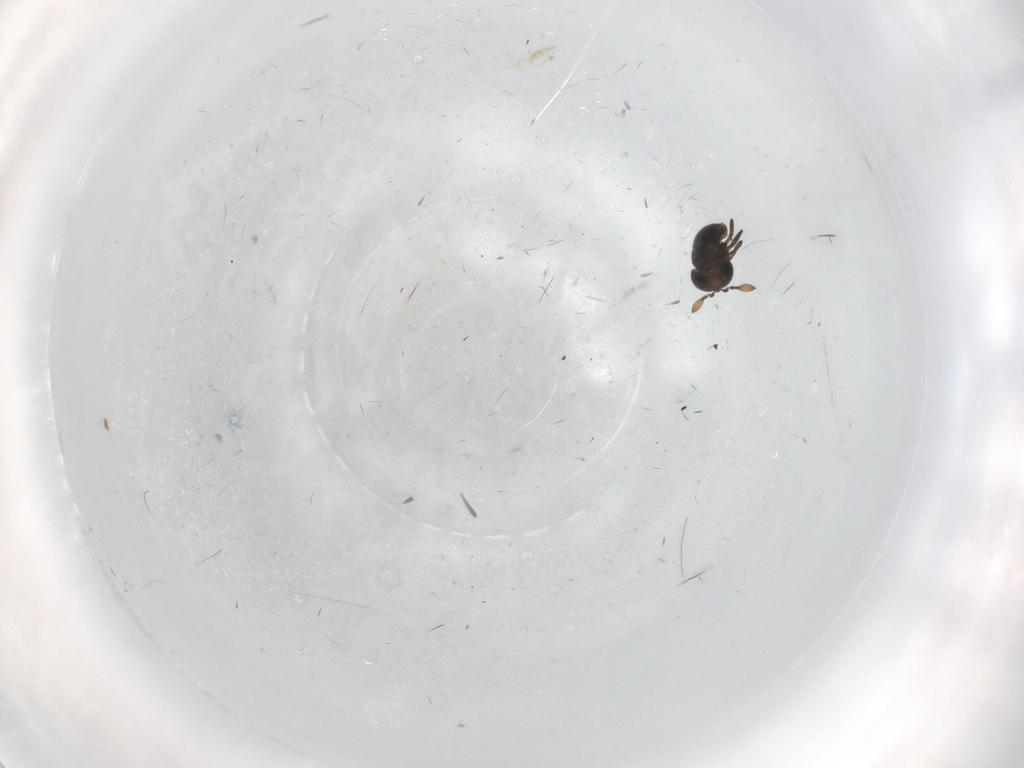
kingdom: Animalia
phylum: Arthropoda
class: Insecta
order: Hymenoptera
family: Scelionidae
